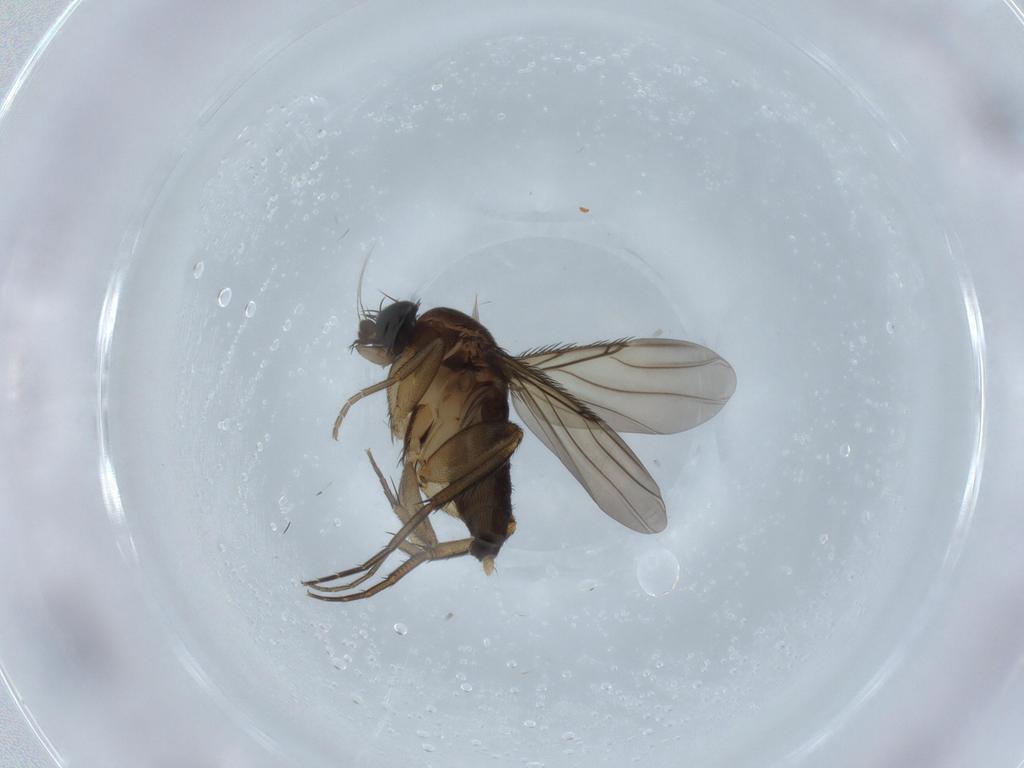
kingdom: Animalia
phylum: Arthropoda
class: Insecta
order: Diptera
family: Phoridae
